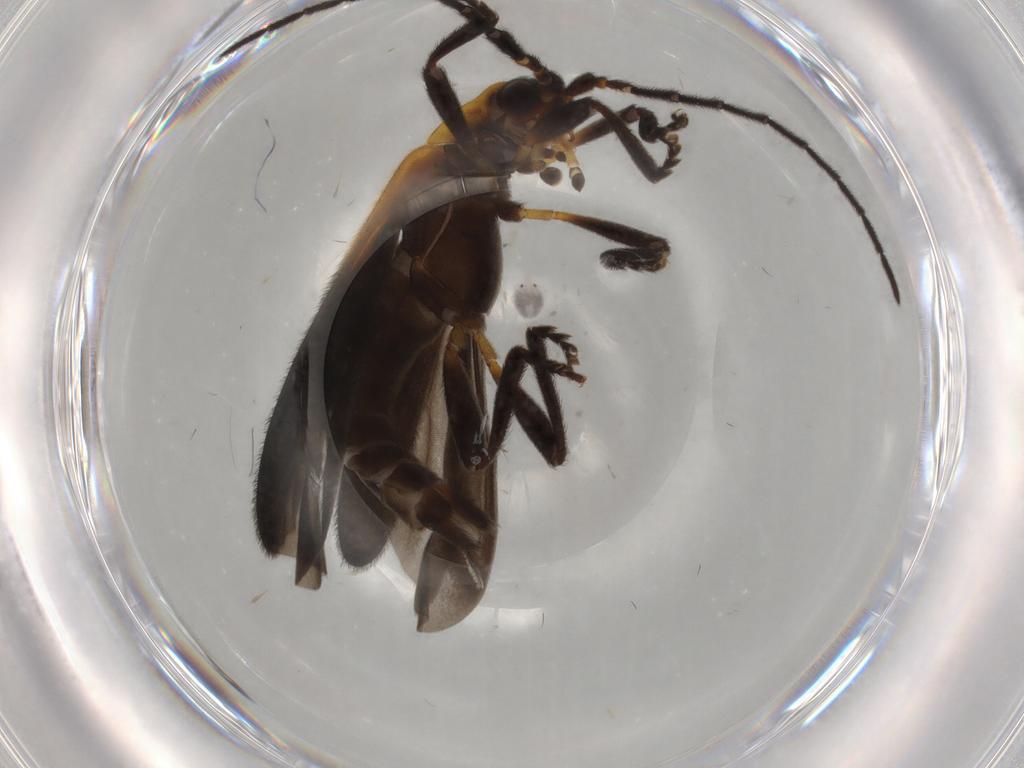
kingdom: Animalia
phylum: Arthropoda
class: Insecta
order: Coleoptera
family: Lycidae
